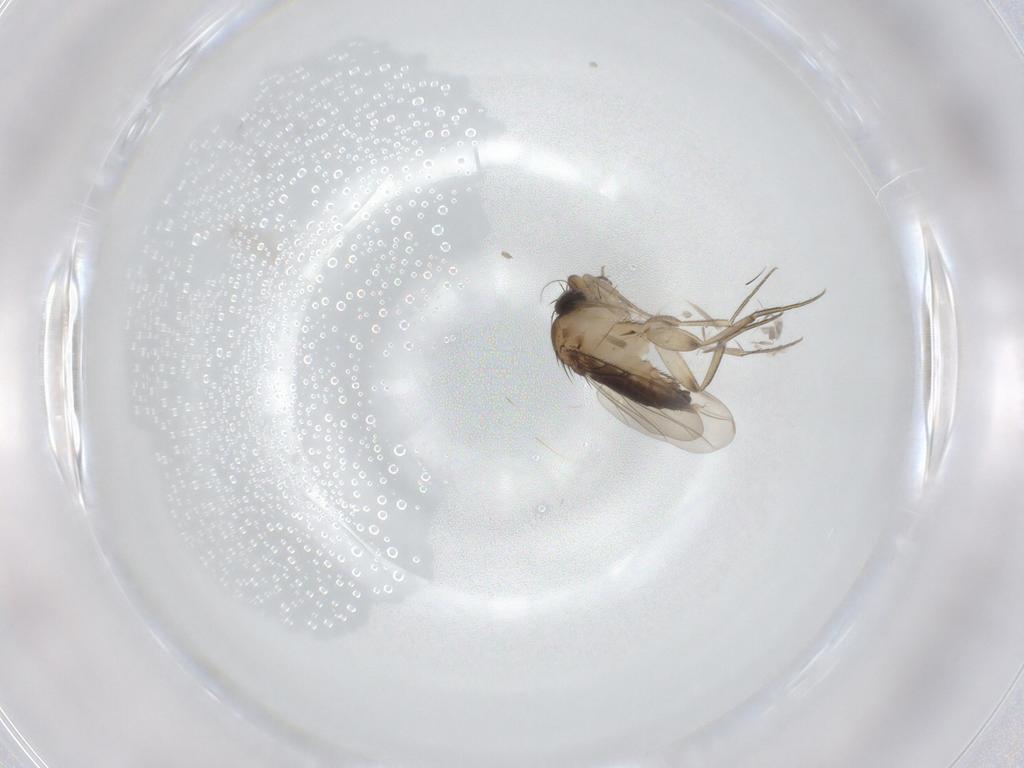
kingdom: Animalia
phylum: Arthropoda
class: Insecta
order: Diptera
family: Phoridae
